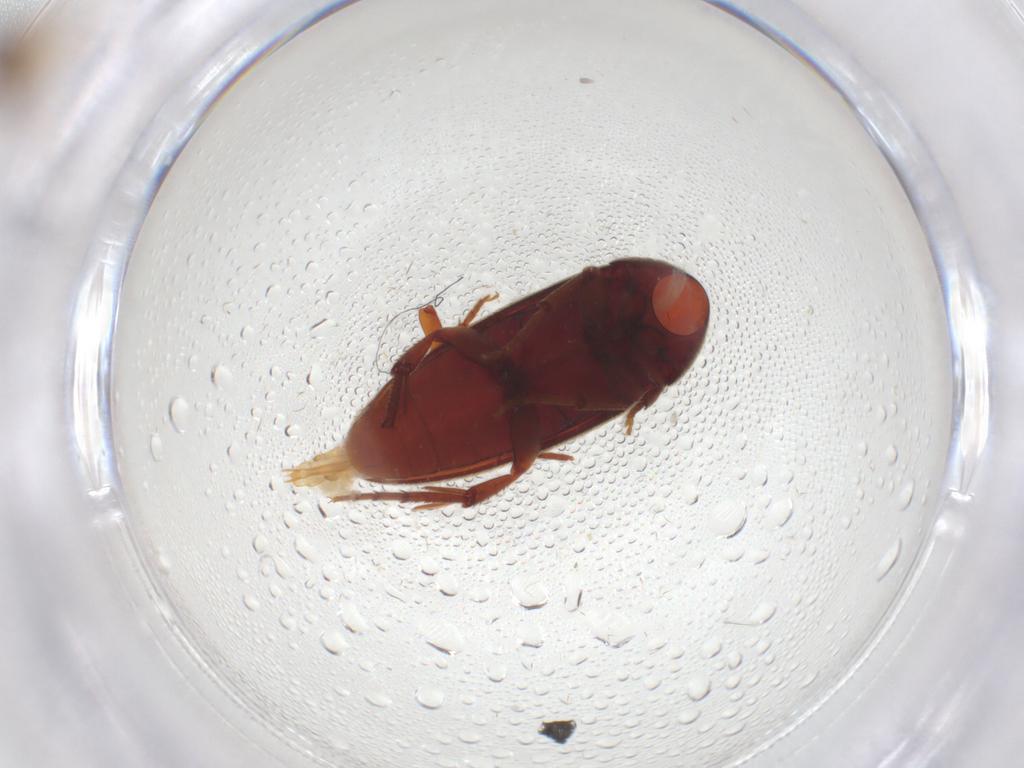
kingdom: Animalia
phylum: Arthropoda
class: Insecta
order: Coleoptera
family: Melandryidae
